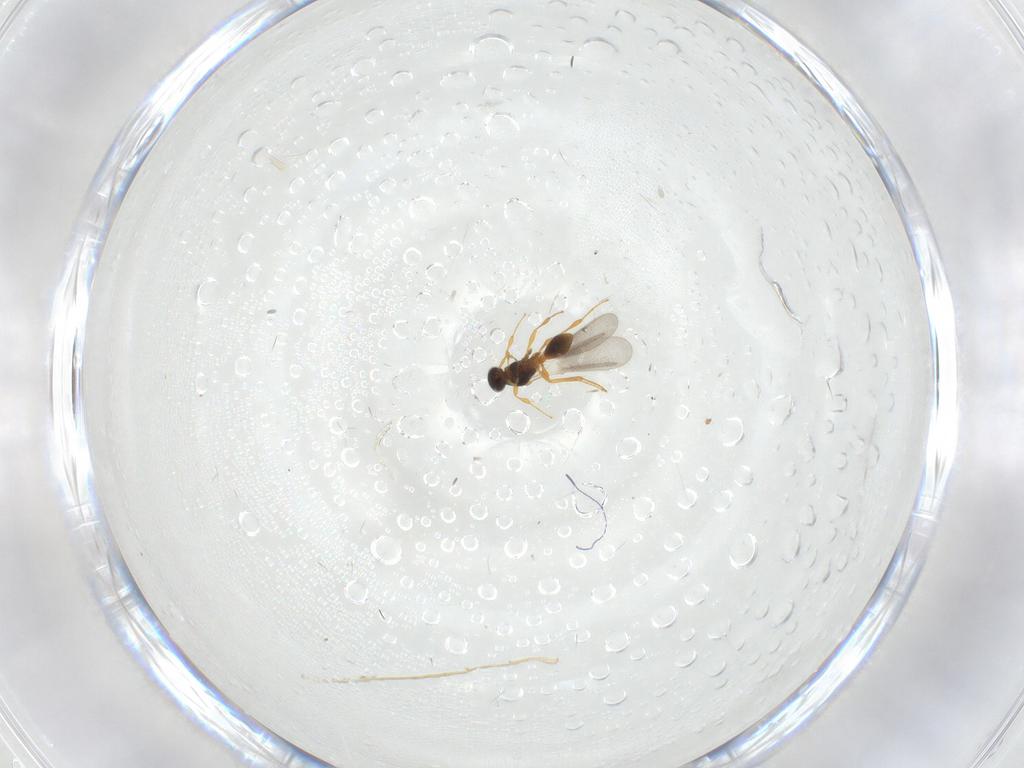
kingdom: Animalia
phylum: Arthropoda
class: Insecta
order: Hymenoptera
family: Platygastridae
